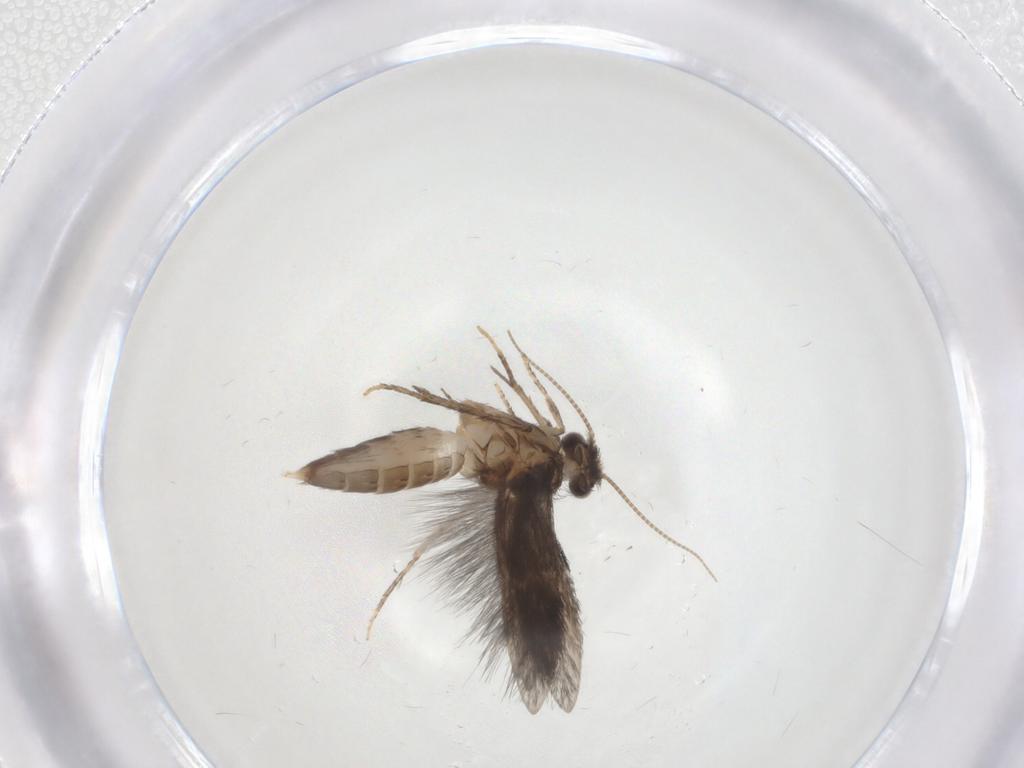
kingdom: Animalia
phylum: Arthropoda
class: Insecta
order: Trichoptera
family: Hydroptilidae
